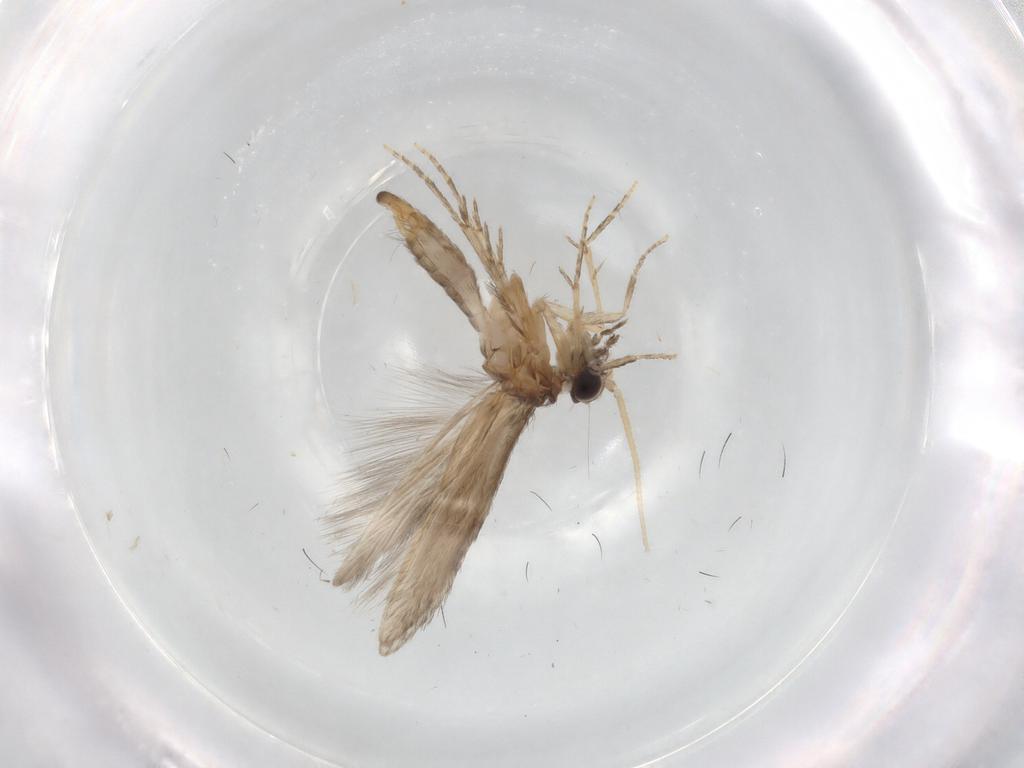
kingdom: Animalia
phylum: Arthropoda
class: Insecta
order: Trichoptera
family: Hydroptilidae
